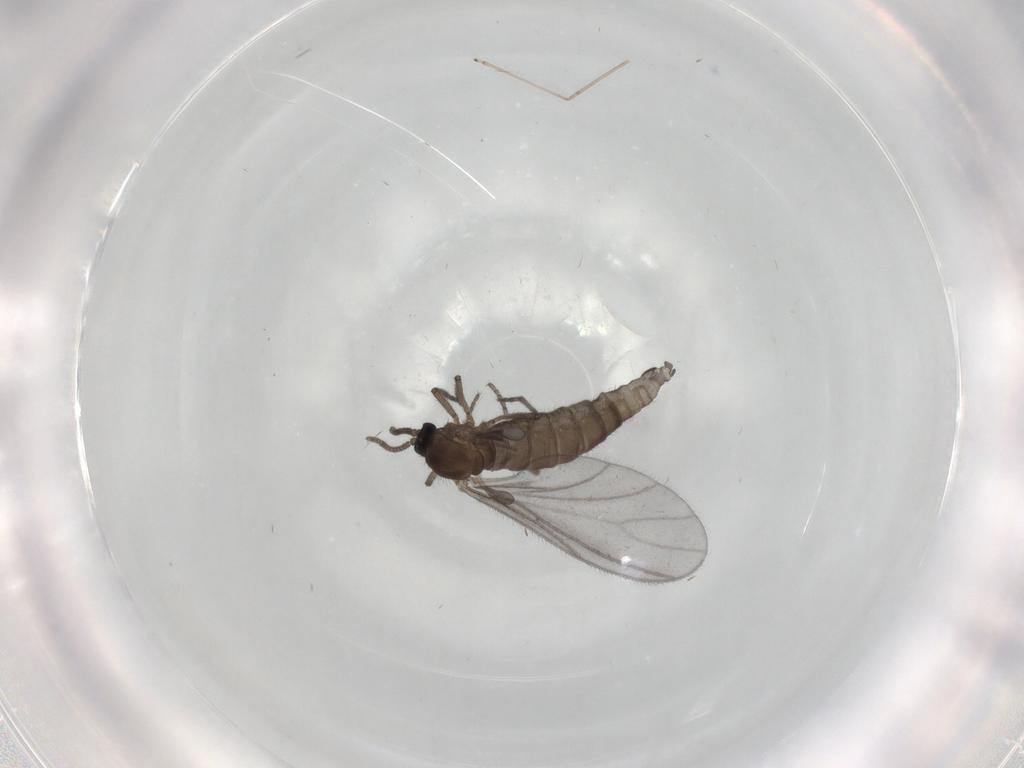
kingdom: Animalia
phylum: Arthropoda
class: Insecta
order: Diptera
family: Sciaridae
